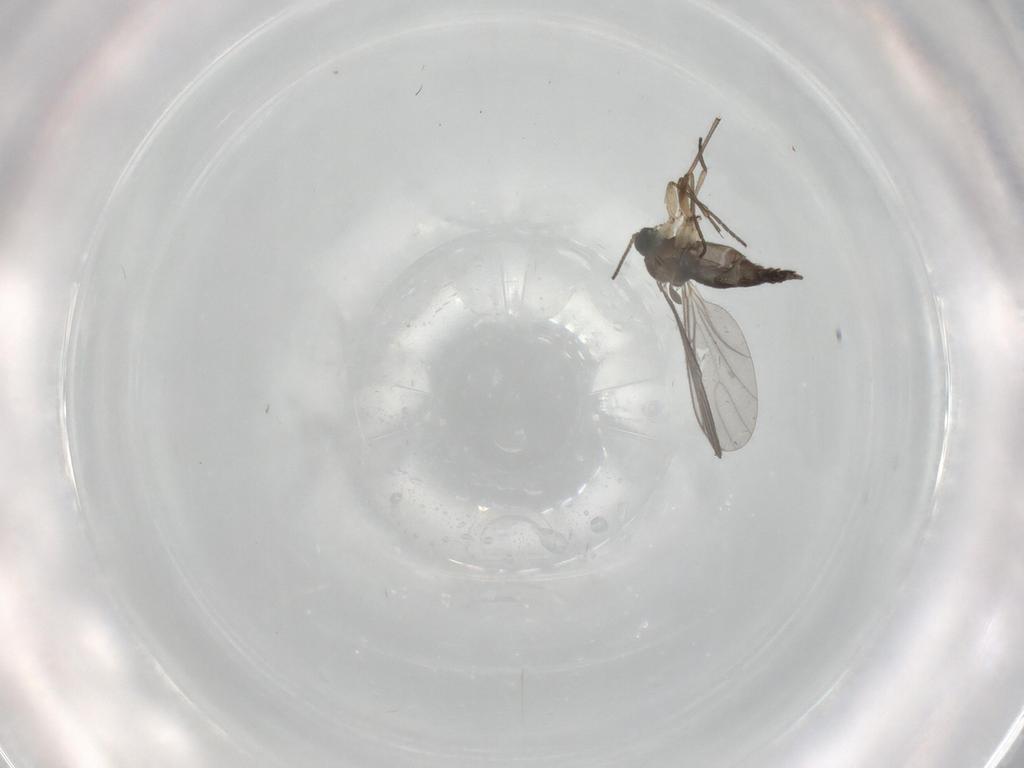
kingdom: Animalia
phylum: Arthropoda
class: Insecta
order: Diptera
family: Sciaridae
